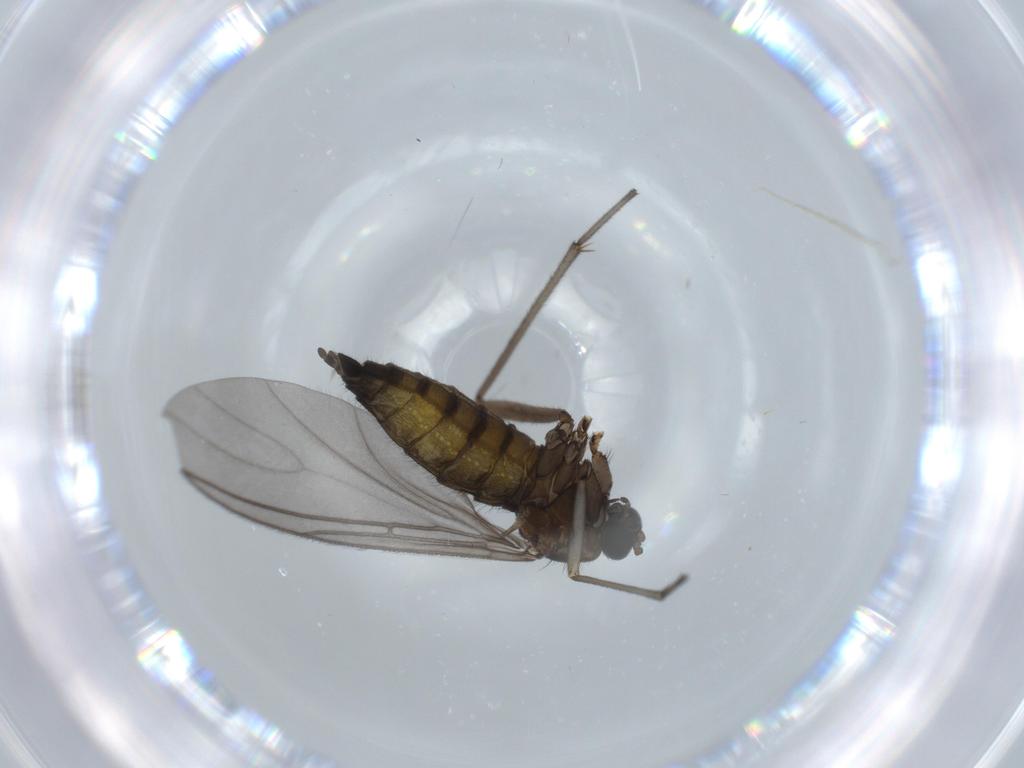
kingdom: Animalia
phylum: Arthropoda
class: Insecta
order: Diptera
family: Sciaridae
